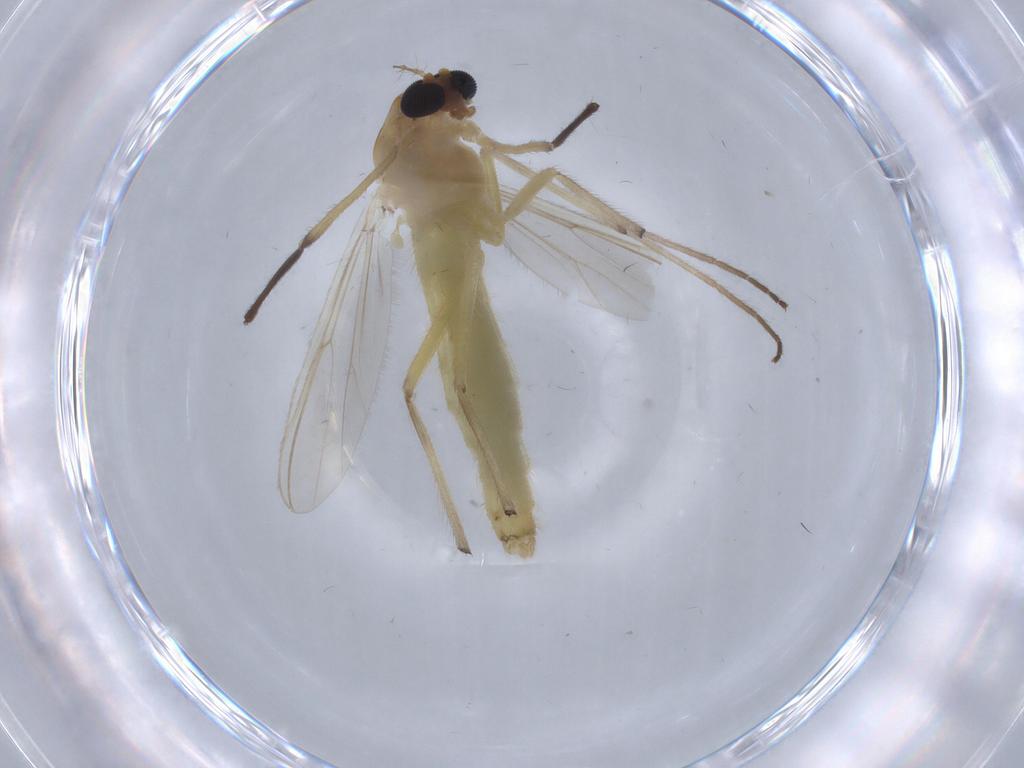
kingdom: Animalia
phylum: Arthropoda
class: Insecta
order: Diptera
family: Chironomidae
